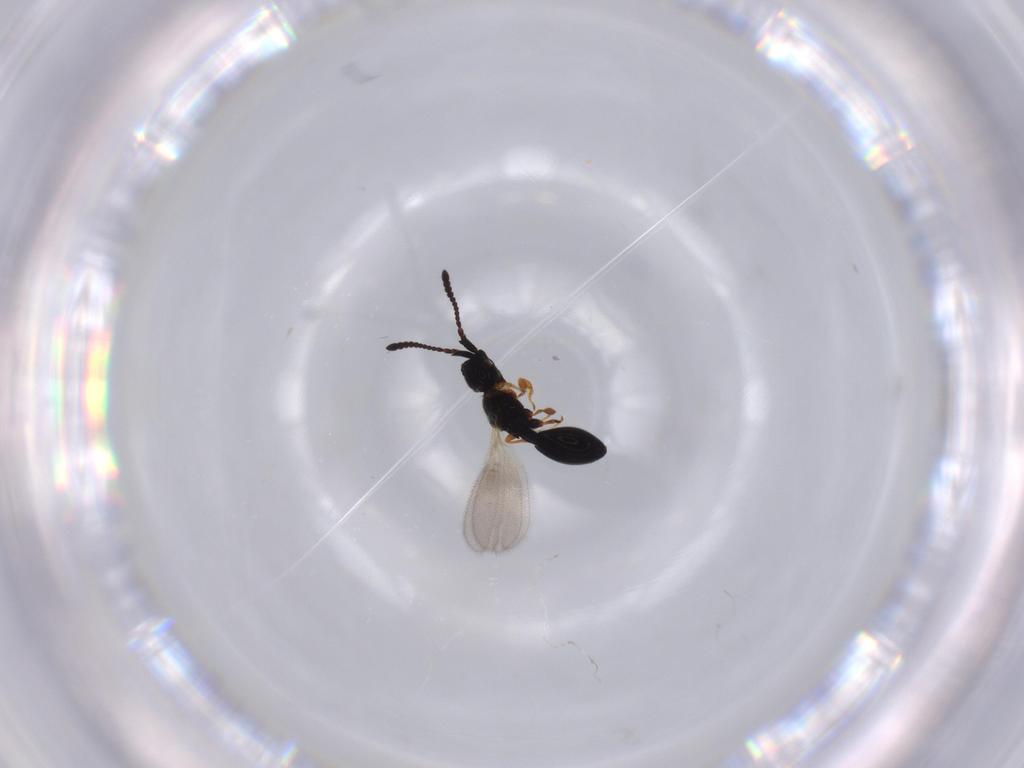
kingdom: Animalia
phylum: Arthropoda
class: Insecta
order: Hymenoptera
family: Diapriidae
